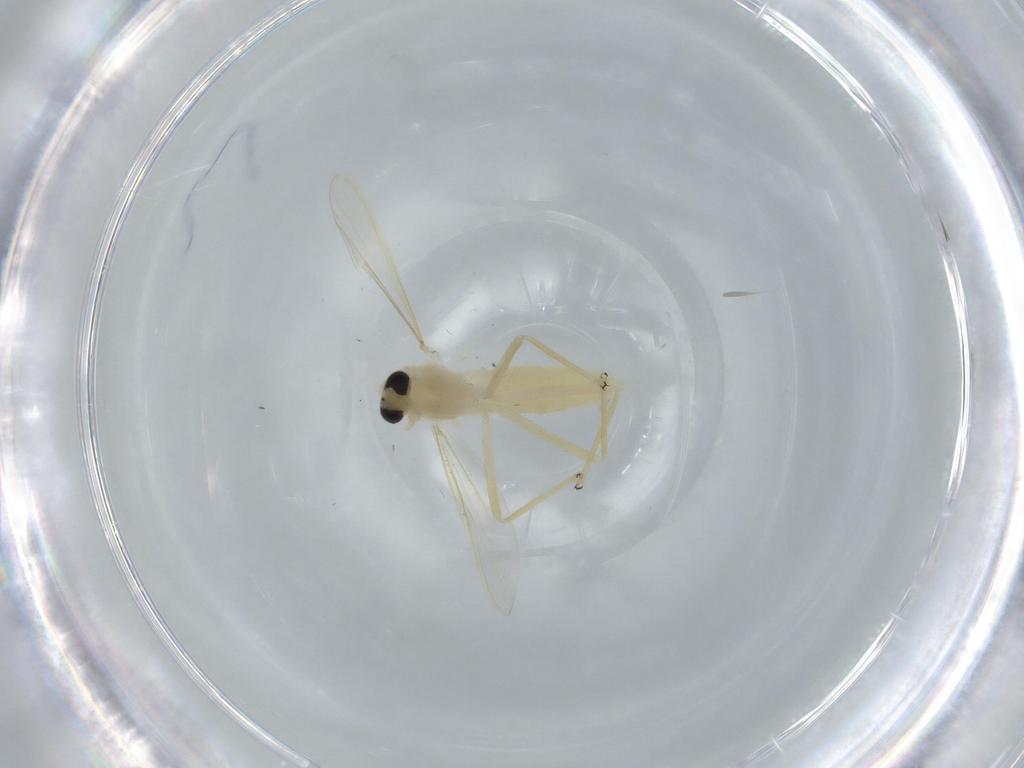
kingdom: Animalia
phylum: Arthropoda
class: Insecta
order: Diptera
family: Chironomidae
